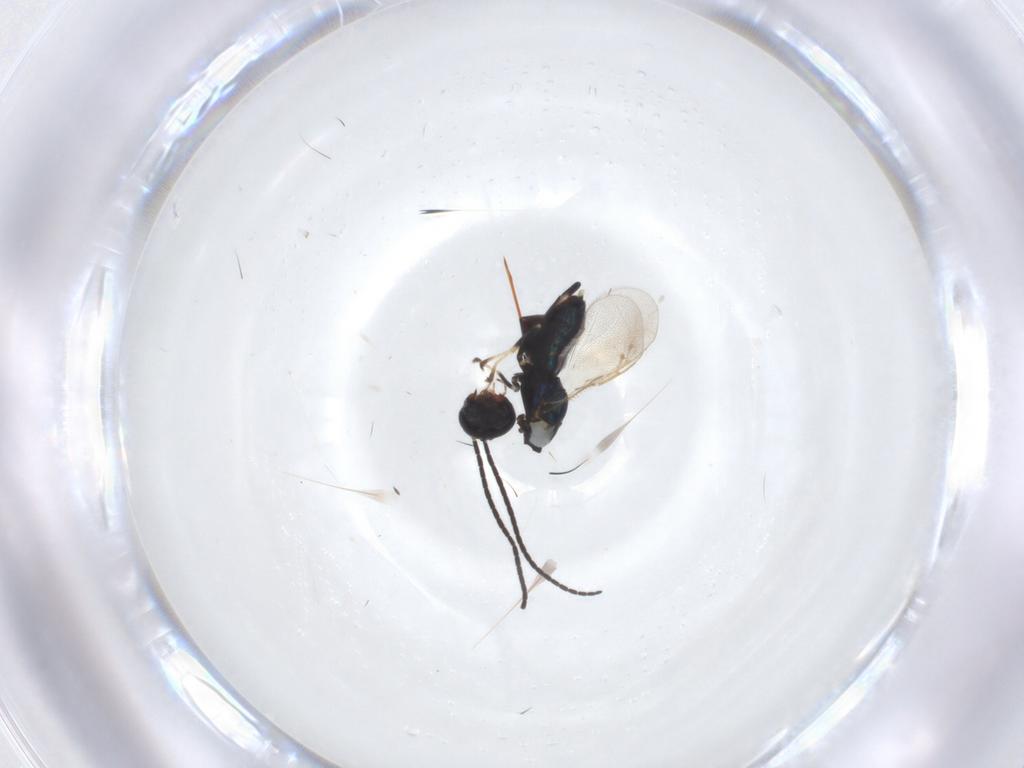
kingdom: Animalia
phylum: Arthropoda
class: Insecta
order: Hymenoptera
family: Pteromalidae
